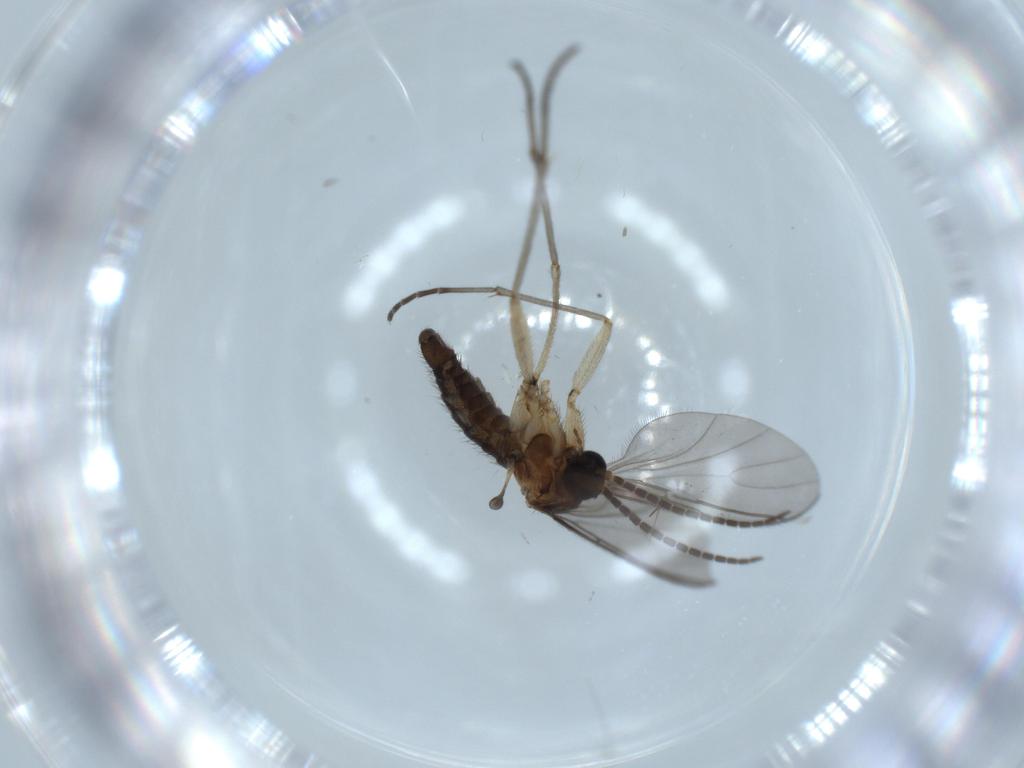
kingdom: Animalia
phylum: Arthropoda
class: Insecta
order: Diptera
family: Sciaridae
